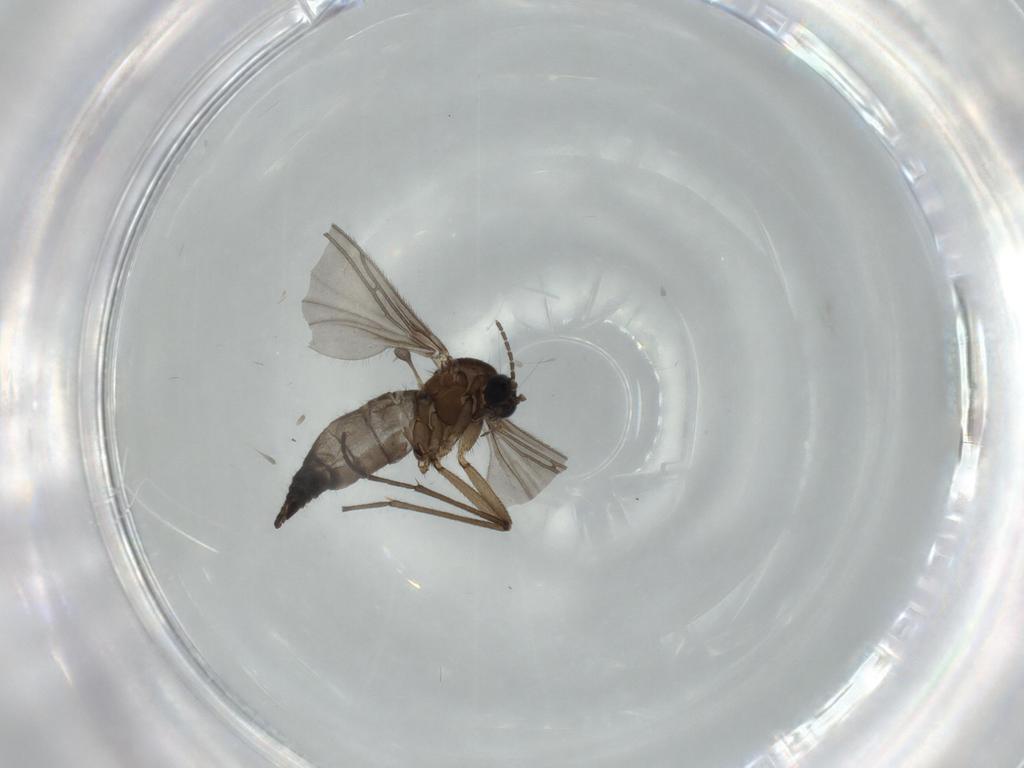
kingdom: Animalia
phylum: Arthropoda
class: Insecta
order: Diptera
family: Sciaridae
